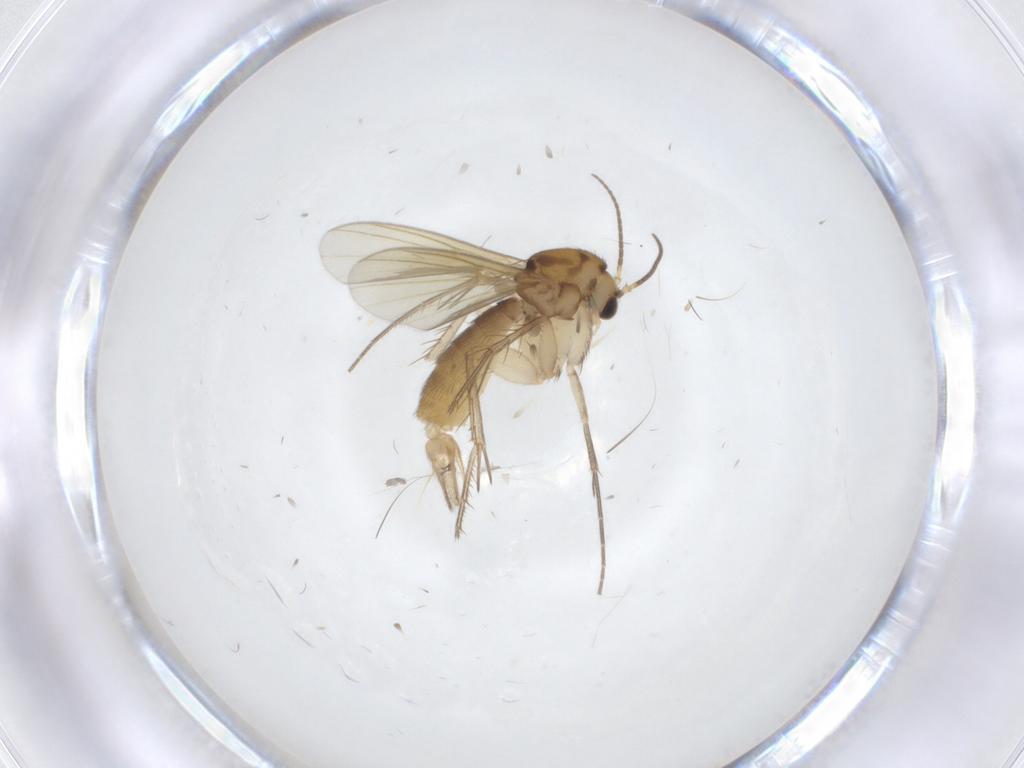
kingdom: Animalia
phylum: Arthropoda
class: Insecta
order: Diptera
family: Mycetophilidae
